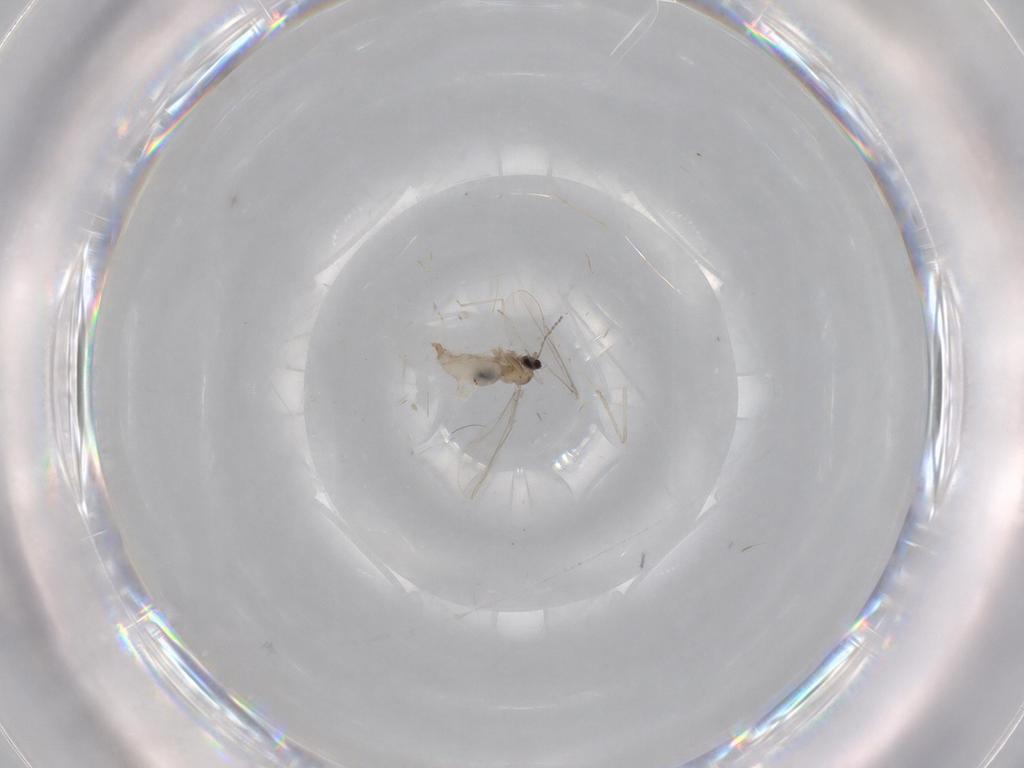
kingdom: Animalia
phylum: Arthropoda
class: Insecta
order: Diptera
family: Cecidomyiidae
